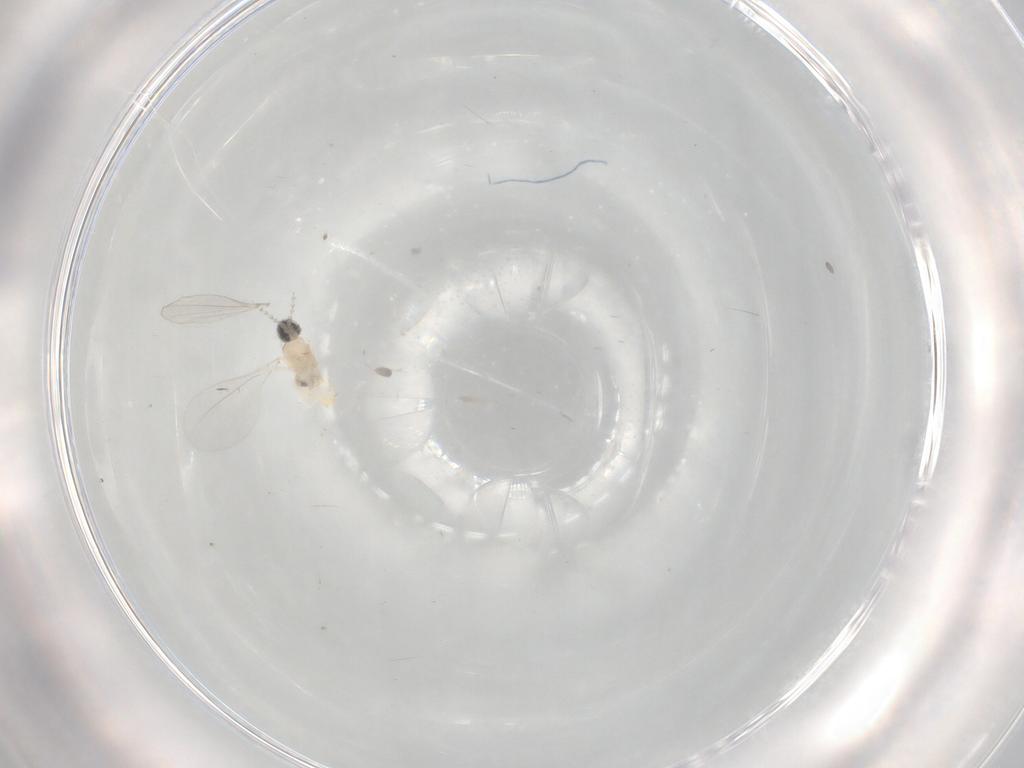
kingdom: Animalia
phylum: Arthropoda
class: Insecta
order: Diptera
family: Cecidomyiidae
